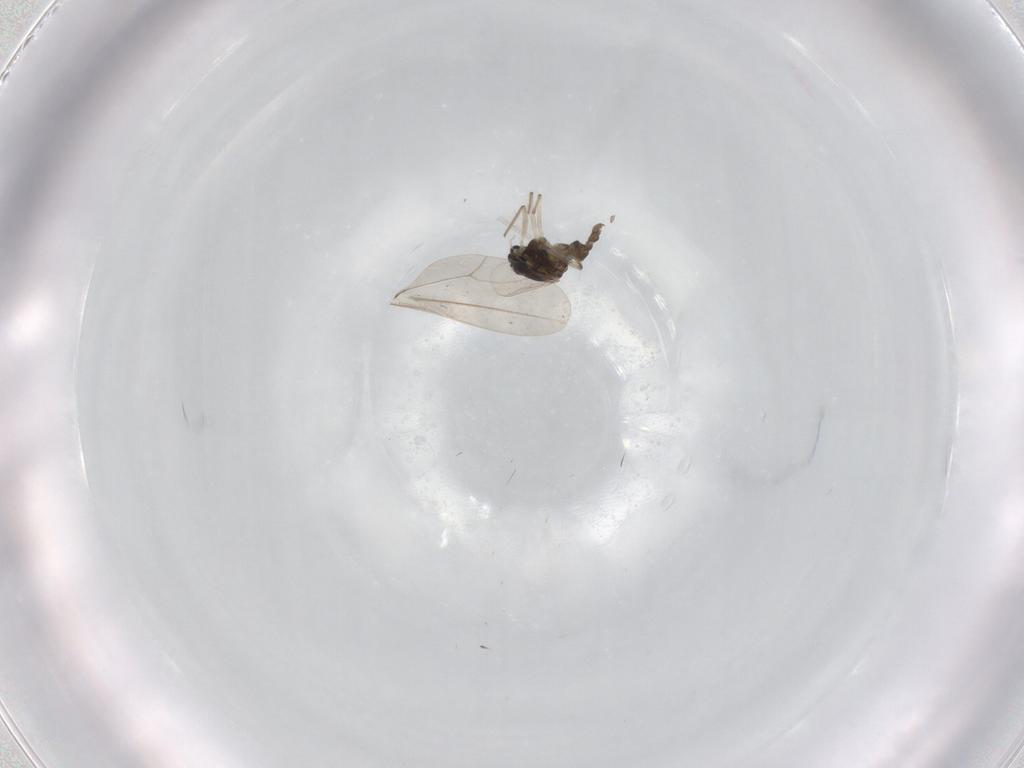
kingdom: Animalia
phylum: Arthropoda
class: Insecta
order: Diptera
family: Chironomidae
